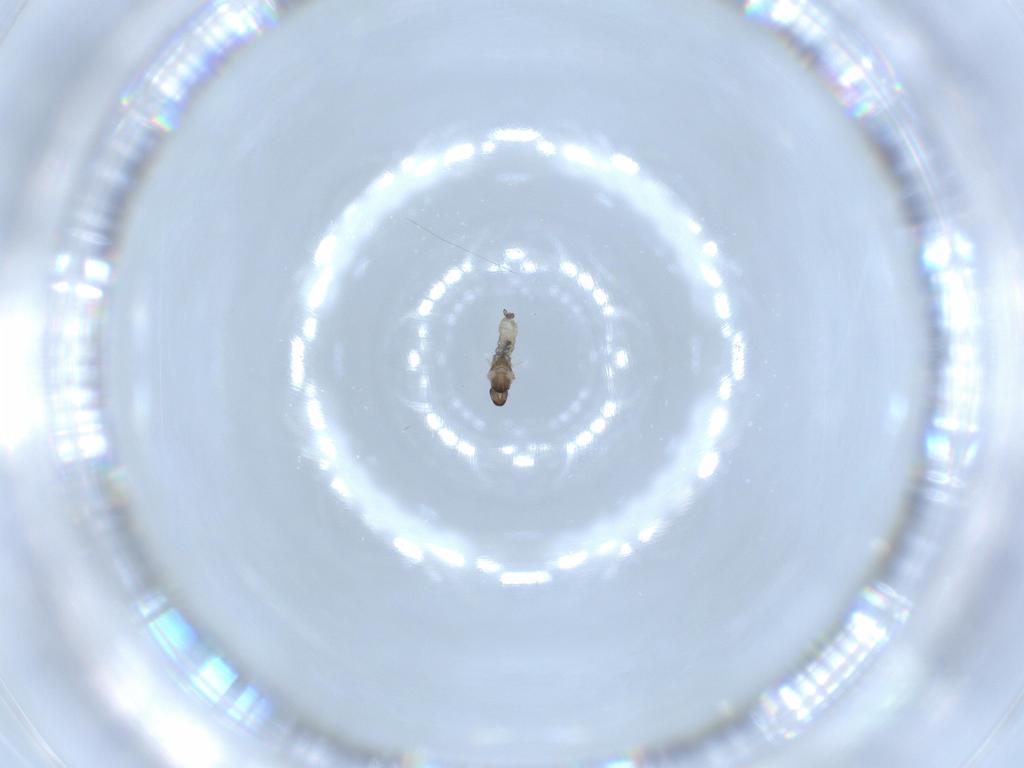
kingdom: Animalia
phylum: Arthropoda
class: Insecta
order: Diptera
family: Cecidomyiidae
